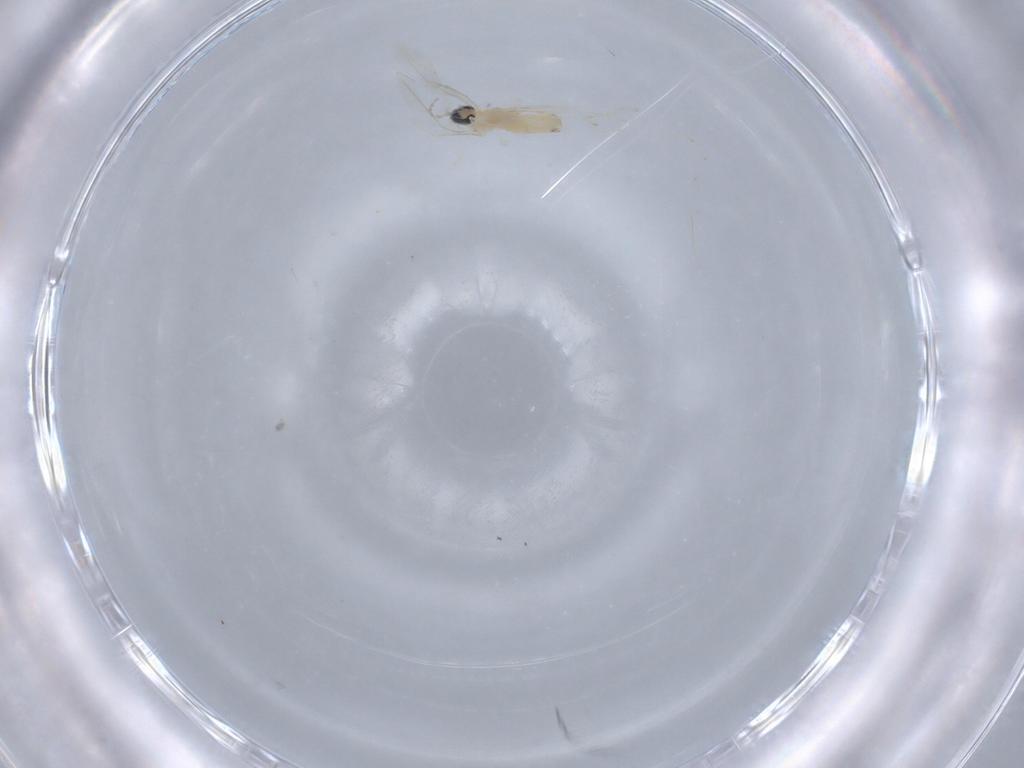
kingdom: Animalia
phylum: Arthropoda
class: Insecta
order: Diptera
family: Cecidomyiidae
